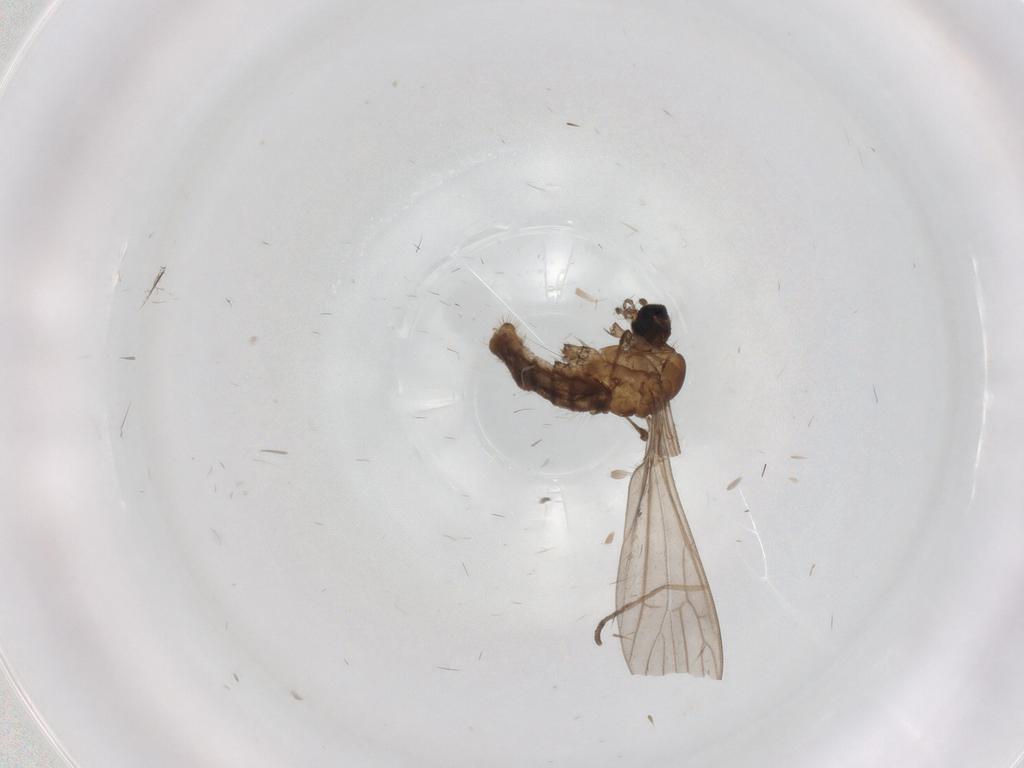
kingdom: Animalia
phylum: Arthropoda
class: Insecta
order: Diptera
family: Limoniidae
